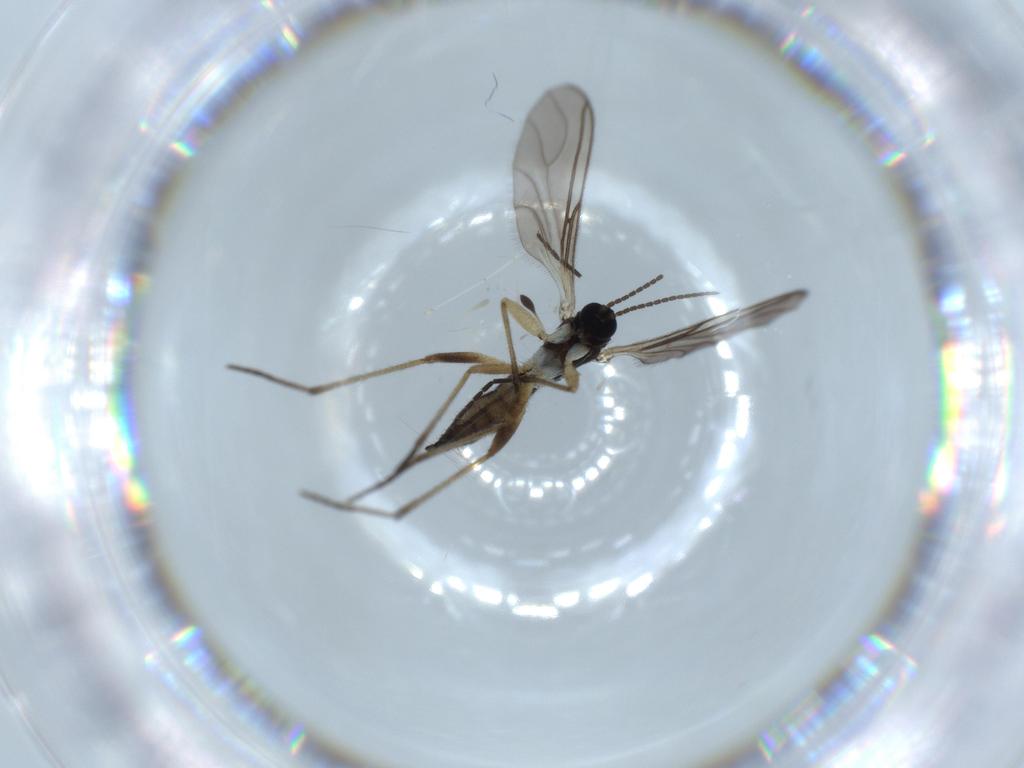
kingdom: Animalia
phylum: Arthropoda
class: Insecta
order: Diptera
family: Sciaridae
